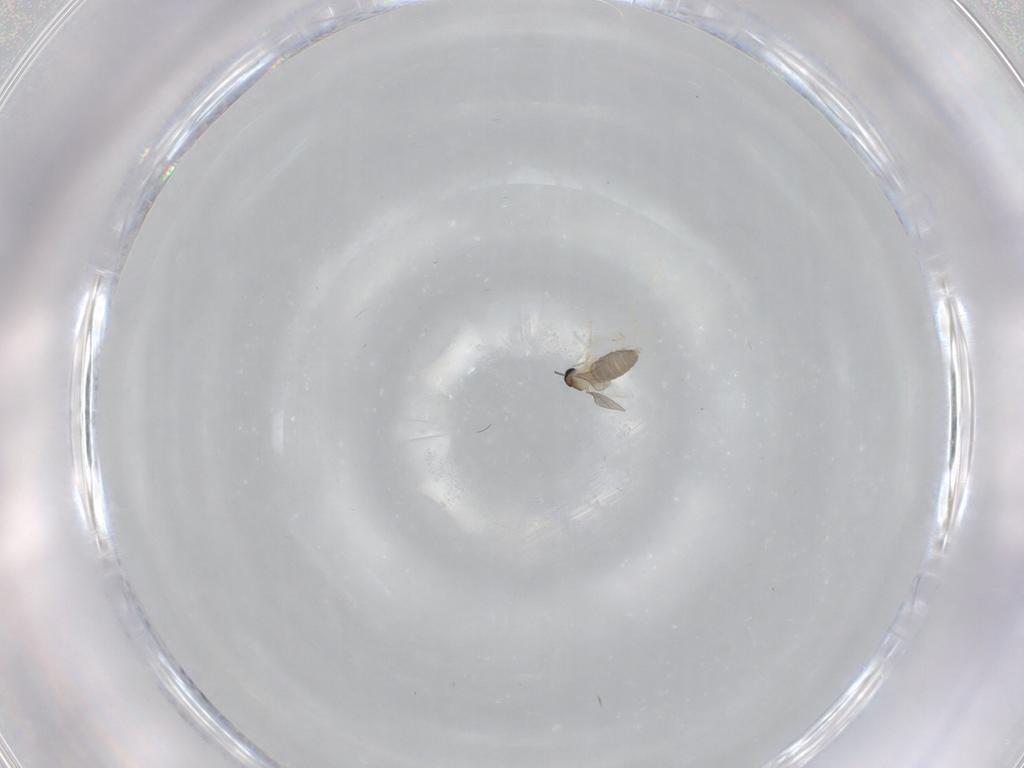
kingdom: Animalia
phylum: Arthropoda
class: Insecta
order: Diptera
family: Cecidomyiidae
